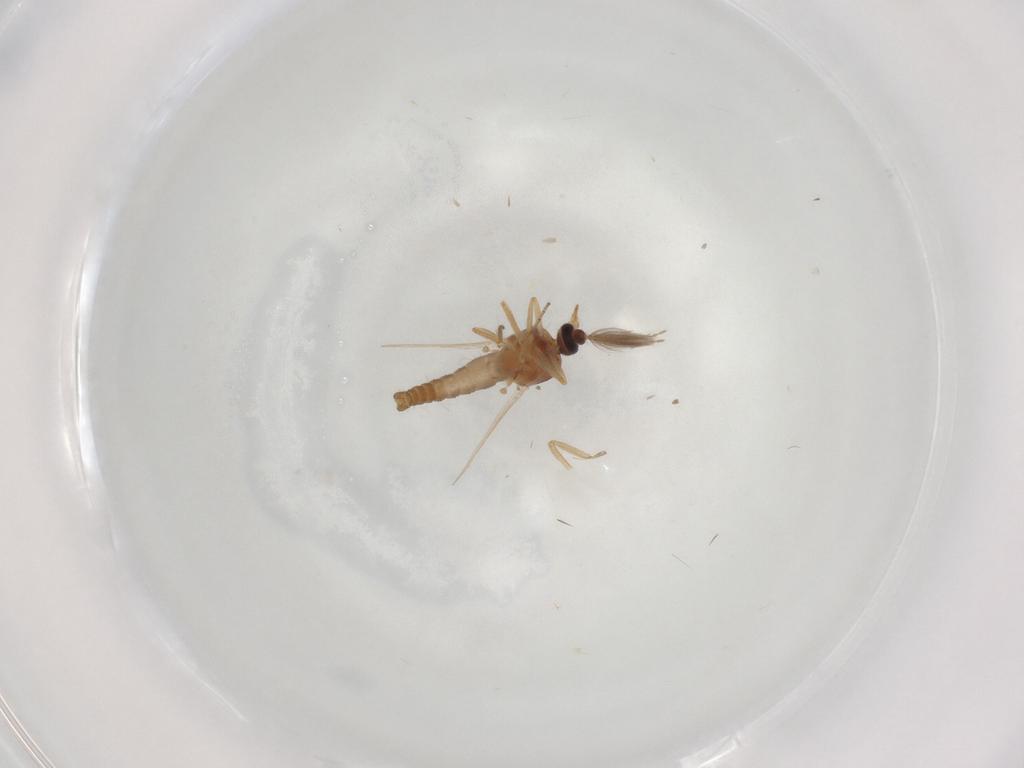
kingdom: Animalia
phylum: Arthropoda
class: Insecta
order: Diptera
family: Ceratopogonidae
